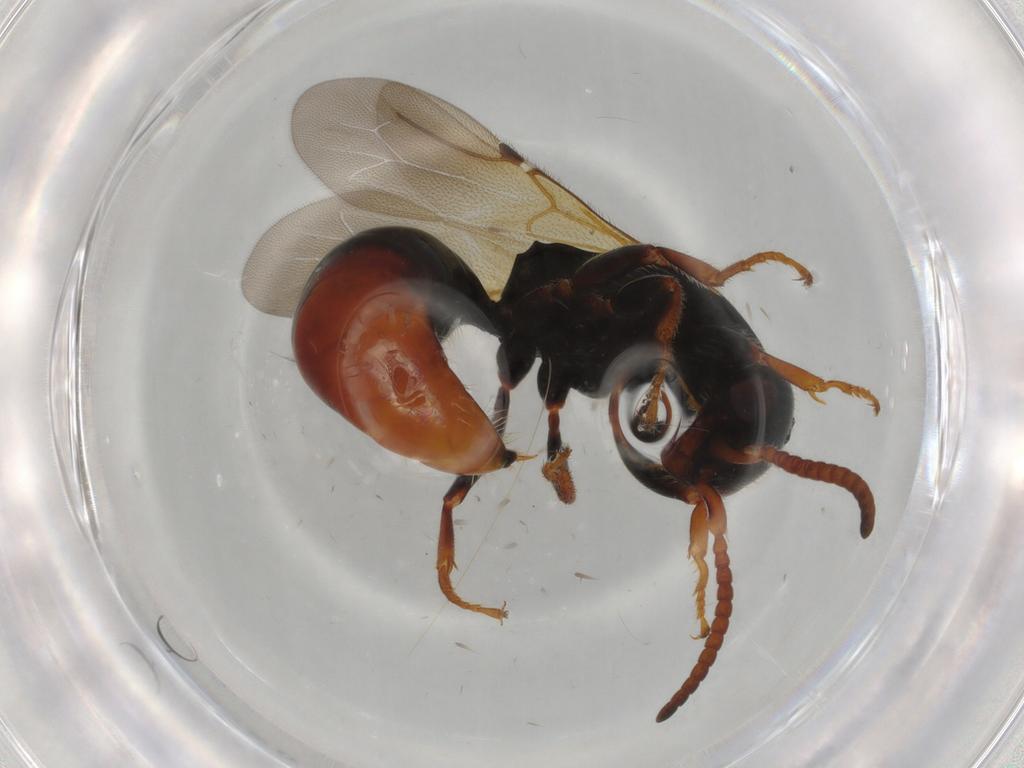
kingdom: Animalia
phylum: Arthropoda
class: Insecta
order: Hymenoptera
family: Bethylidae
